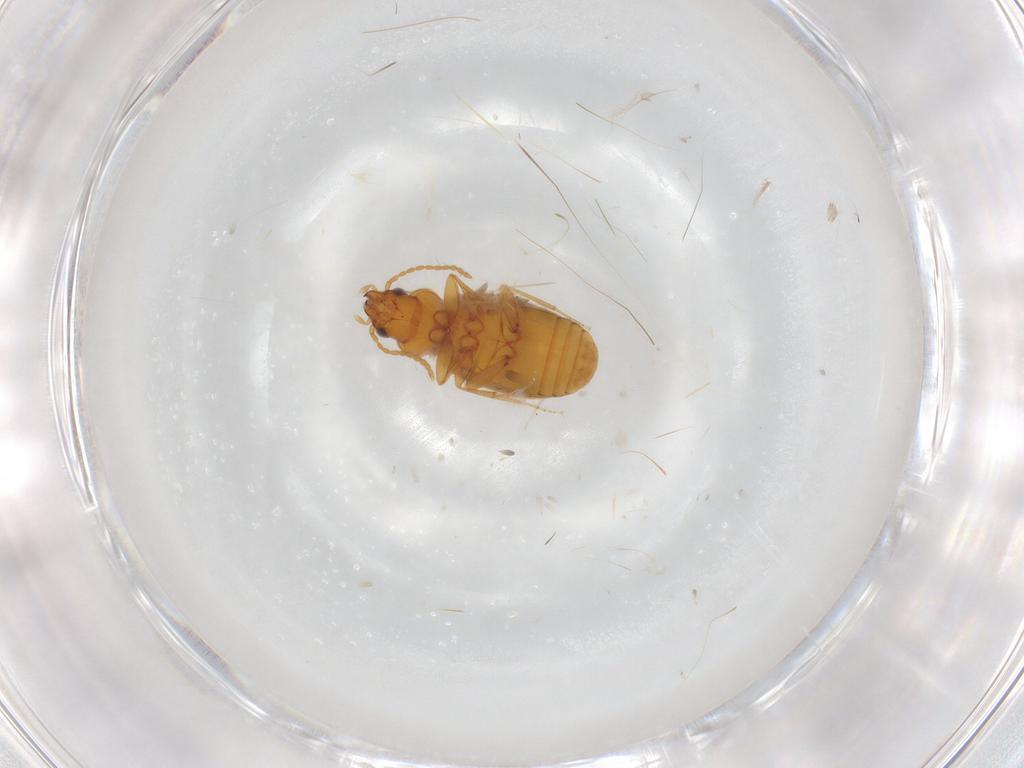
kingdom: Animalia
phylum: Arthropoda
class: Insecta
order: Coleoptera
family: Carabidae
